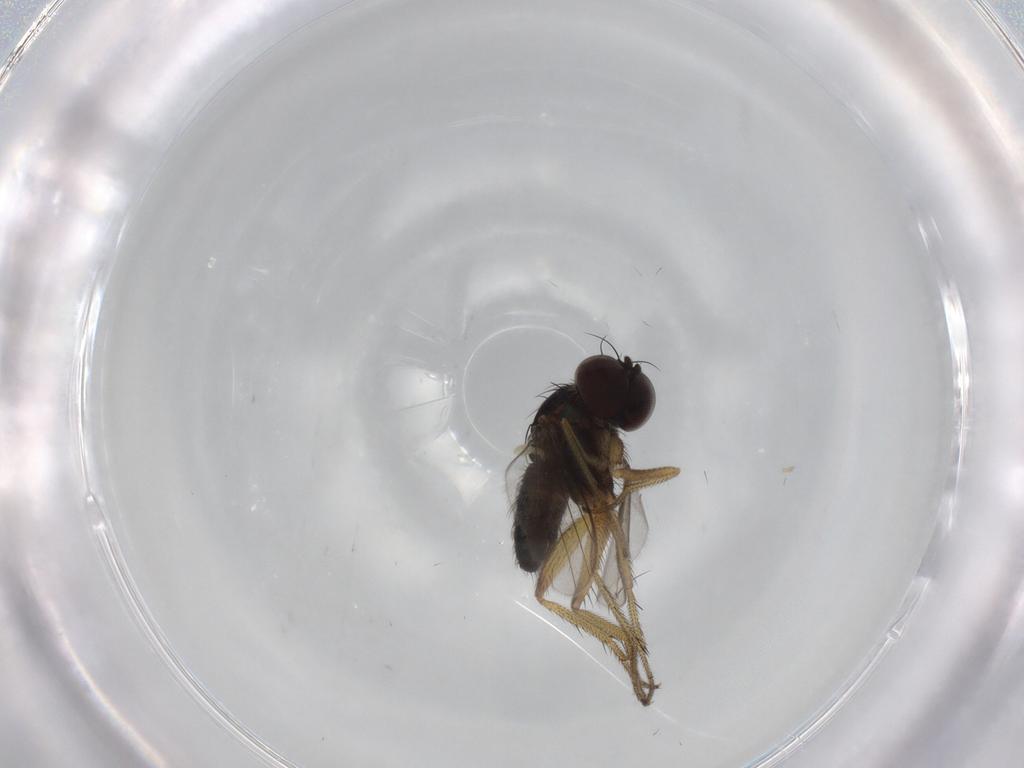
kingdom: Animalia
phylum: Arthropoda
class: Insecta
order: Diptera
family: Dolichopodidae
